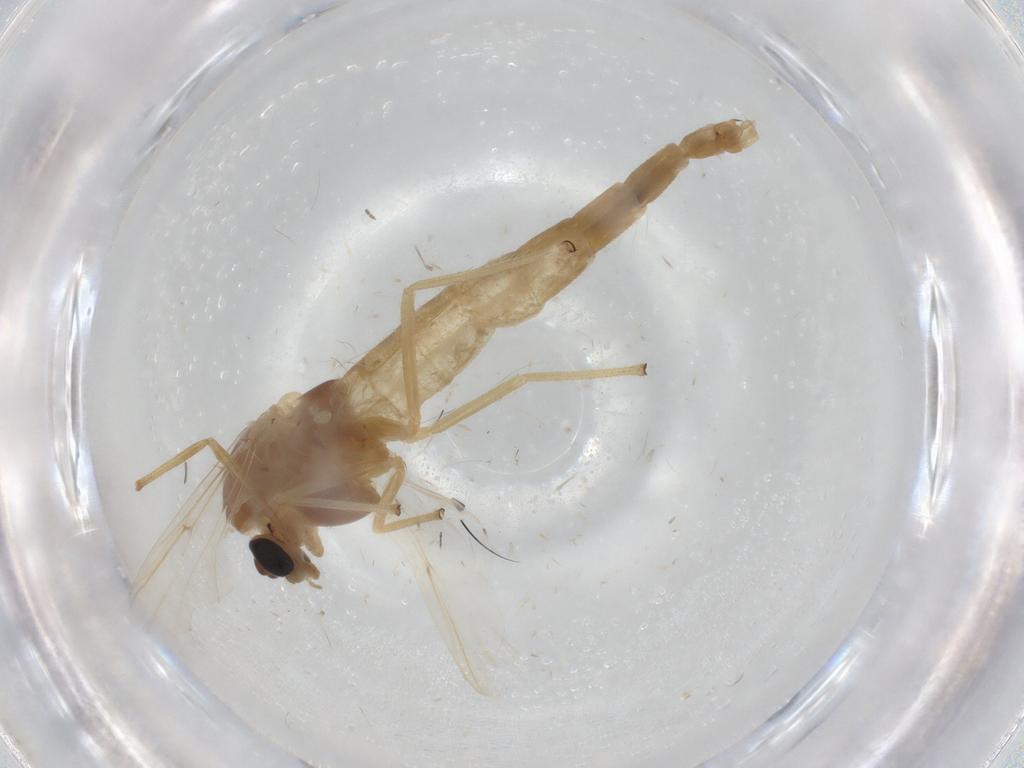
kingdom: Animalia
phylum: Arthropoda
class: Insecta
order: Diptera
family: Chironomidae
